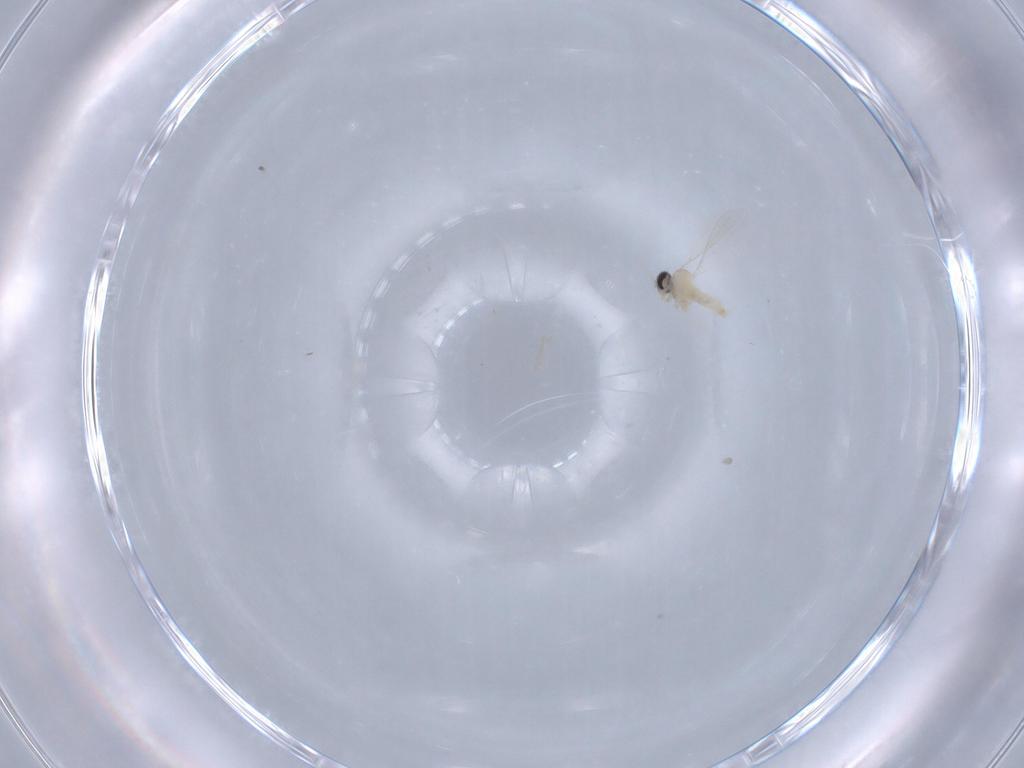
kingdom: Animalia
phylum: Arthropoda
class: Insecta
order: Diptera
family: Cecidomyiidae
